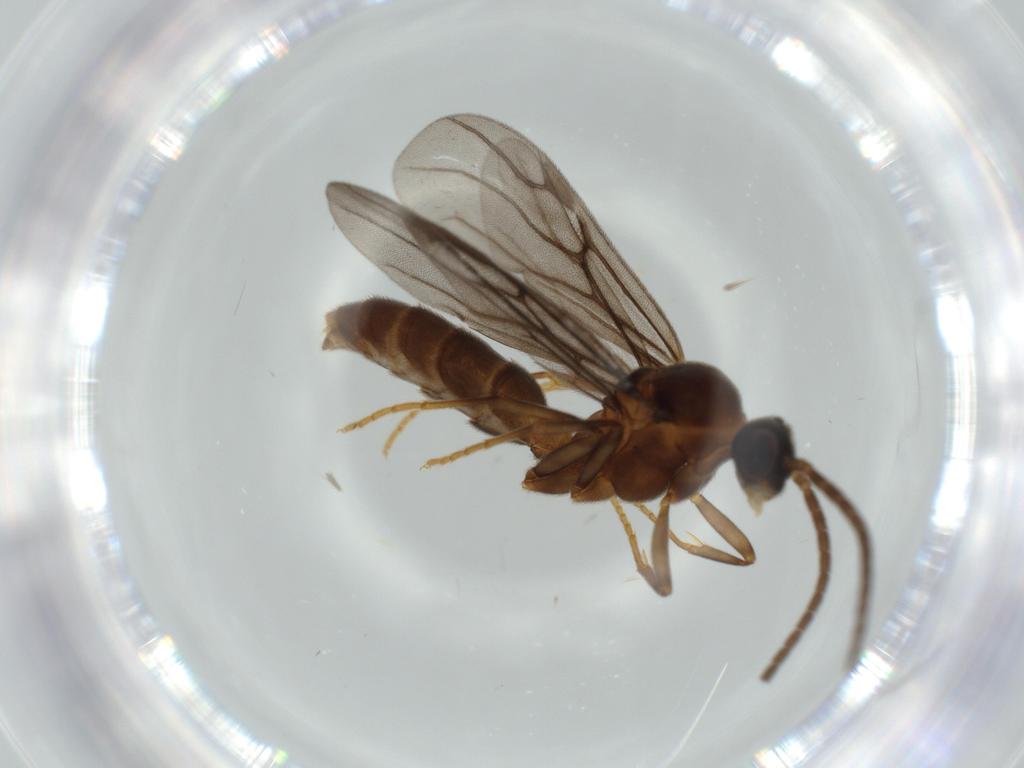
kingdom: Animalia
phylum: Arthropoda
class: Insecta
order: Hymenoptera
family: Formicidae
